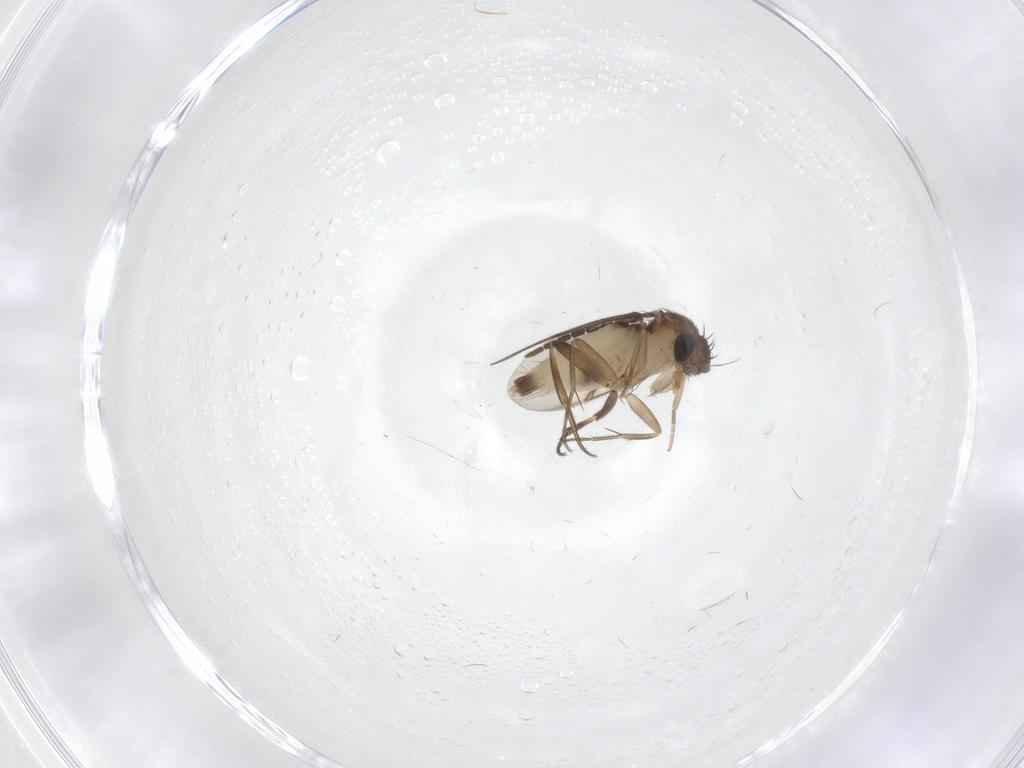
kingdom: Animalia
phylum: Arthropoda
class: Insecta
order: Diptera
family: Phoridae
